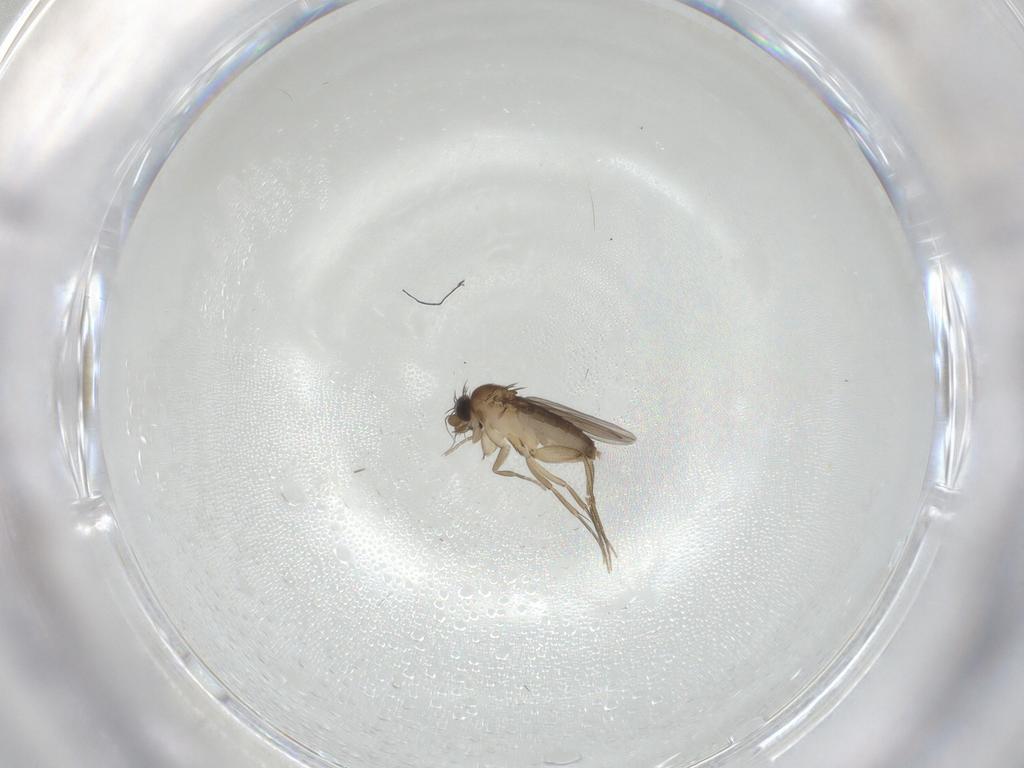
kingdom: Animalia
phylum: Arthropoda
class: Insecta
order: Diptera
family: Phoridae
